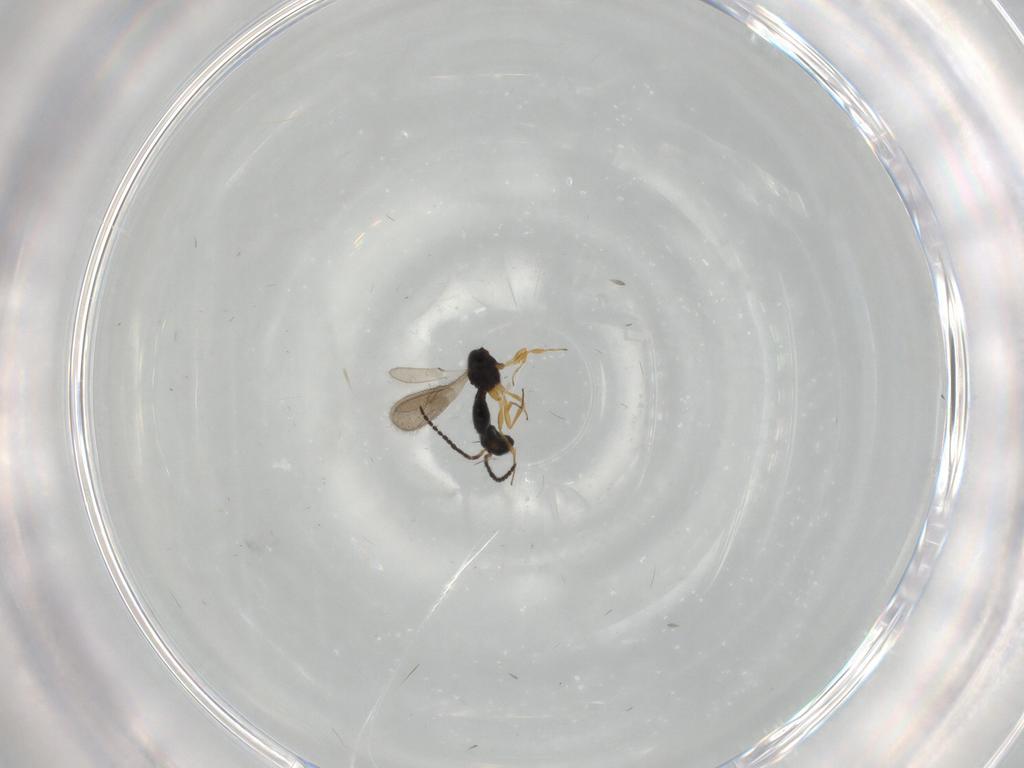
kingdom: Animalia
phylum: Arthropoda
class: Insecta
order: Hymenoptera
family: Scelionidae
